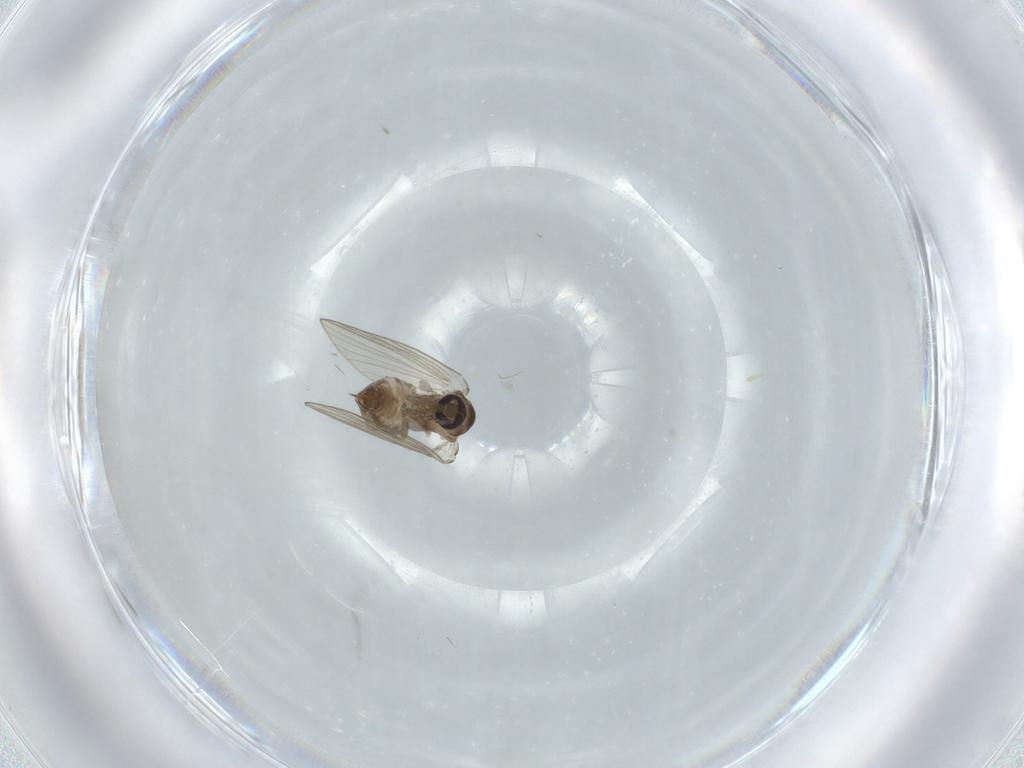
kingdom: Animalia
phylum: Arthropoda
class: Insecta
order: Diptera
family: Psychodidae
